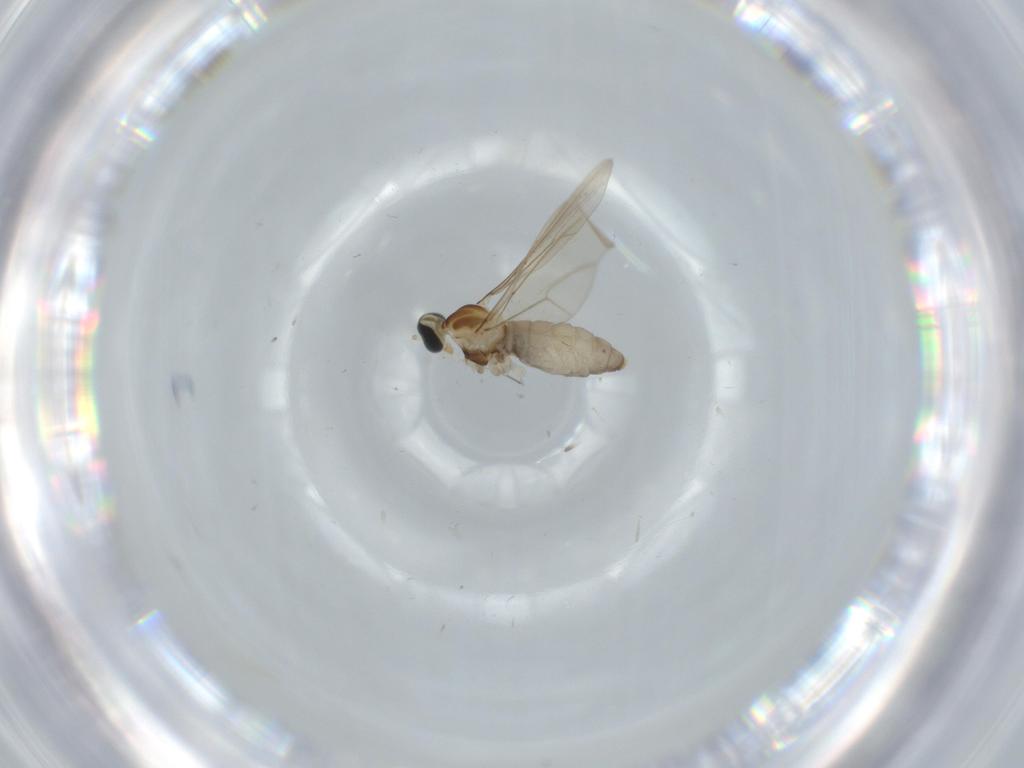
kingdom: Animalia
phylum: Arthropoda
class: Insecta
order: Diptera
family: Cecidomyiidae
